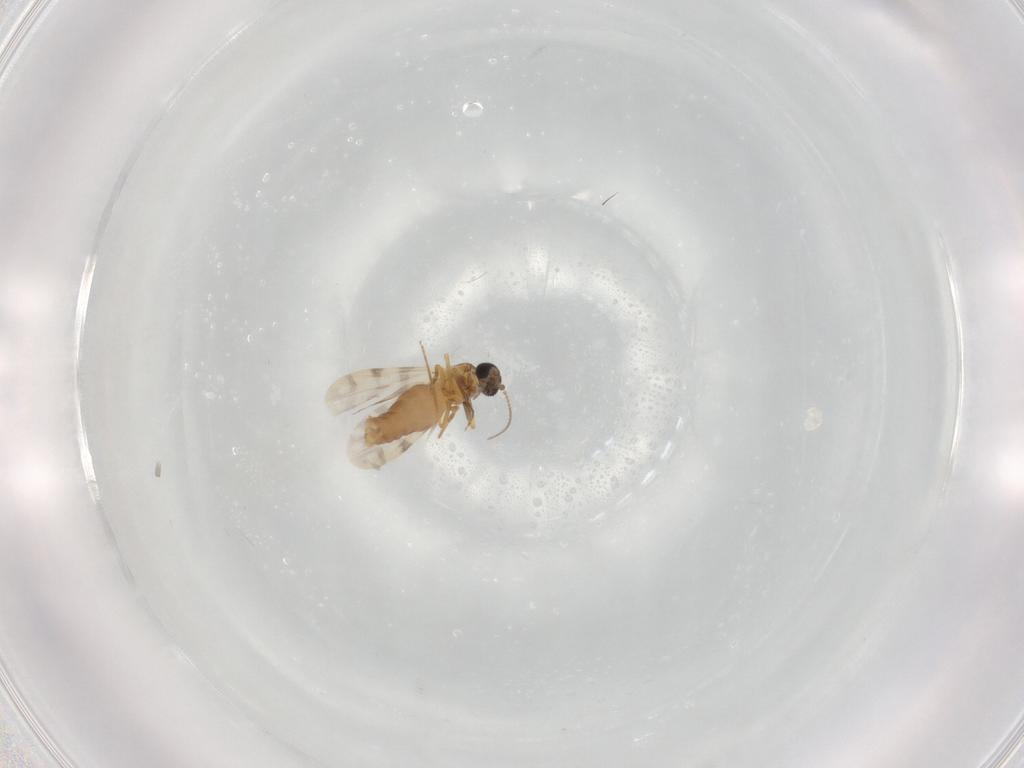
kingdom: Animalia
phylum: Arthropoda
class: Insecta
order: Diptera
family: Ceratopogonidae
